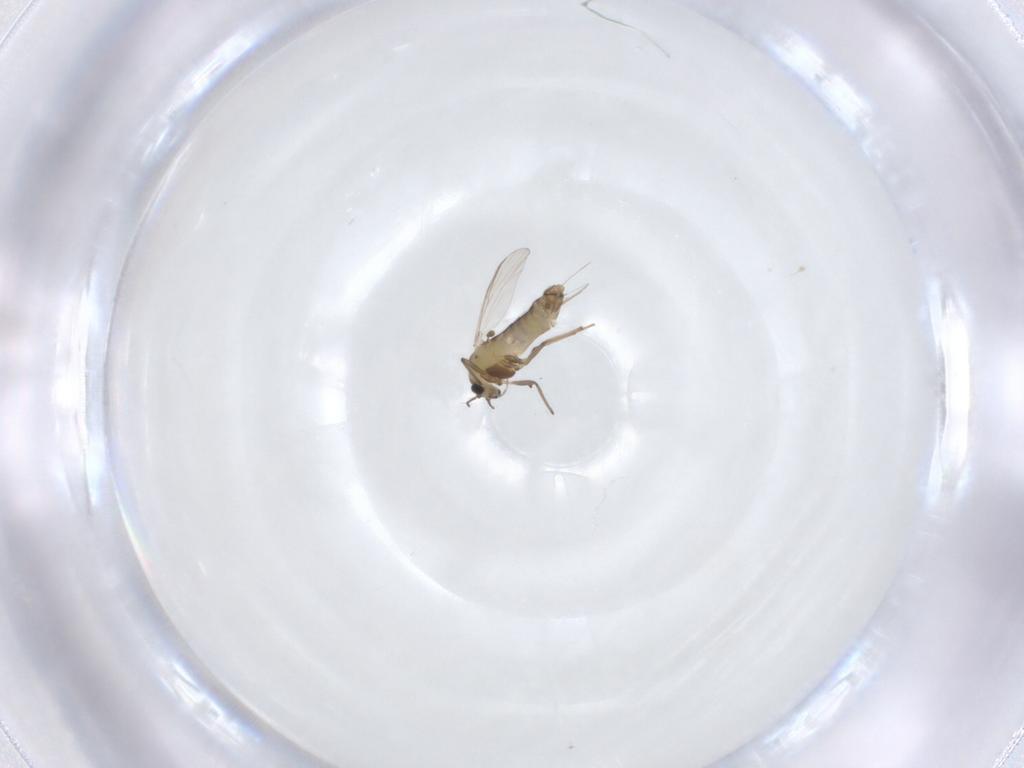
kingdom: Animalia
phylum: Arthropoda
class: Insecta
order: Diptera
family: Chironomidae
